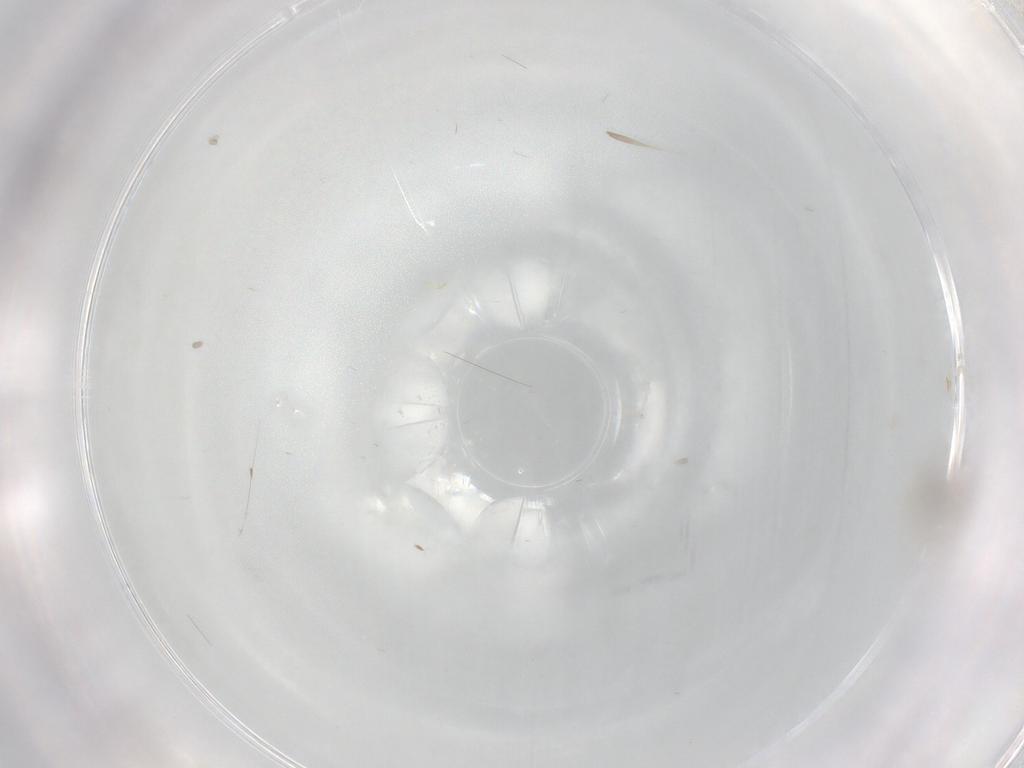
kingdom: Animalia
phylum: Arthropoda
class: Insecta
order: Diptera
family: Cecidomyiidae
